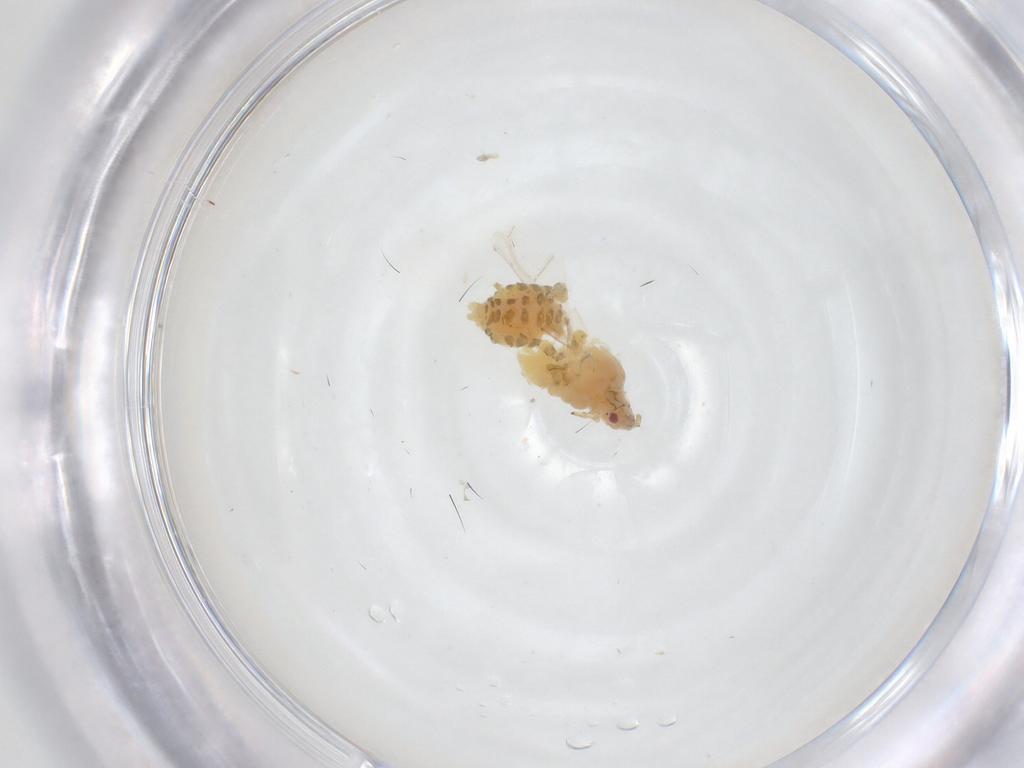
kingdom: Animalia
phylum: Arthropoda
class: Insecta
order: Hemiptera
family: Aphididae
